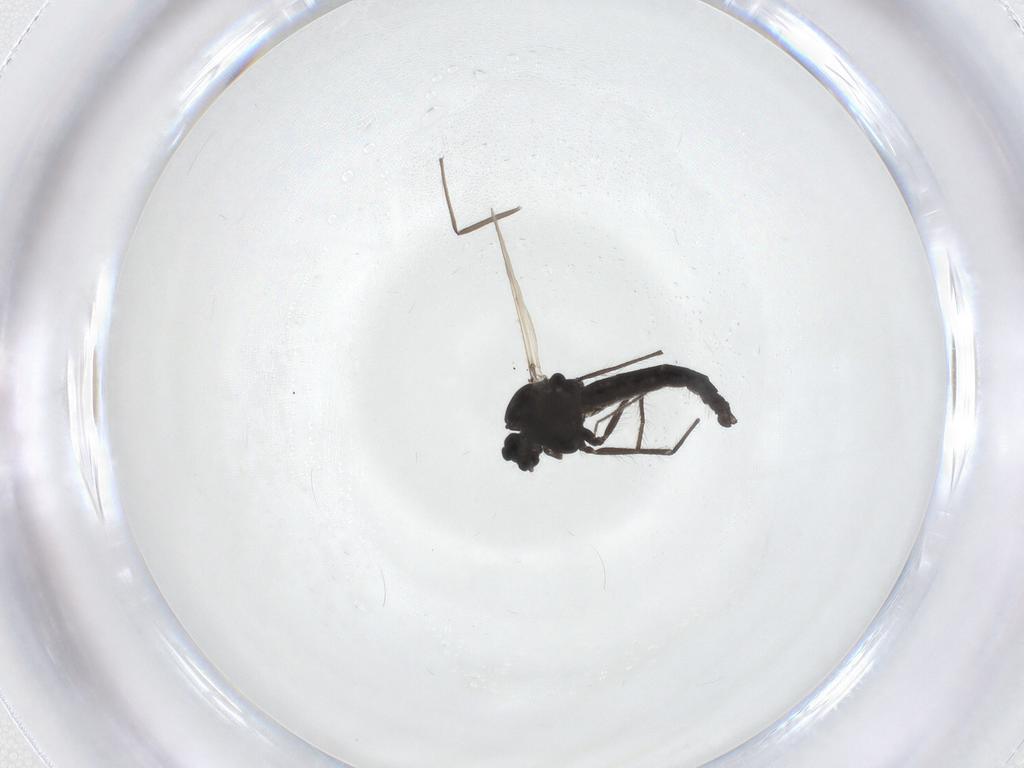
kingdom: Animalia
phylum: Arthropoda
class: Insecta
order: Diptera
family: Chironomidae
